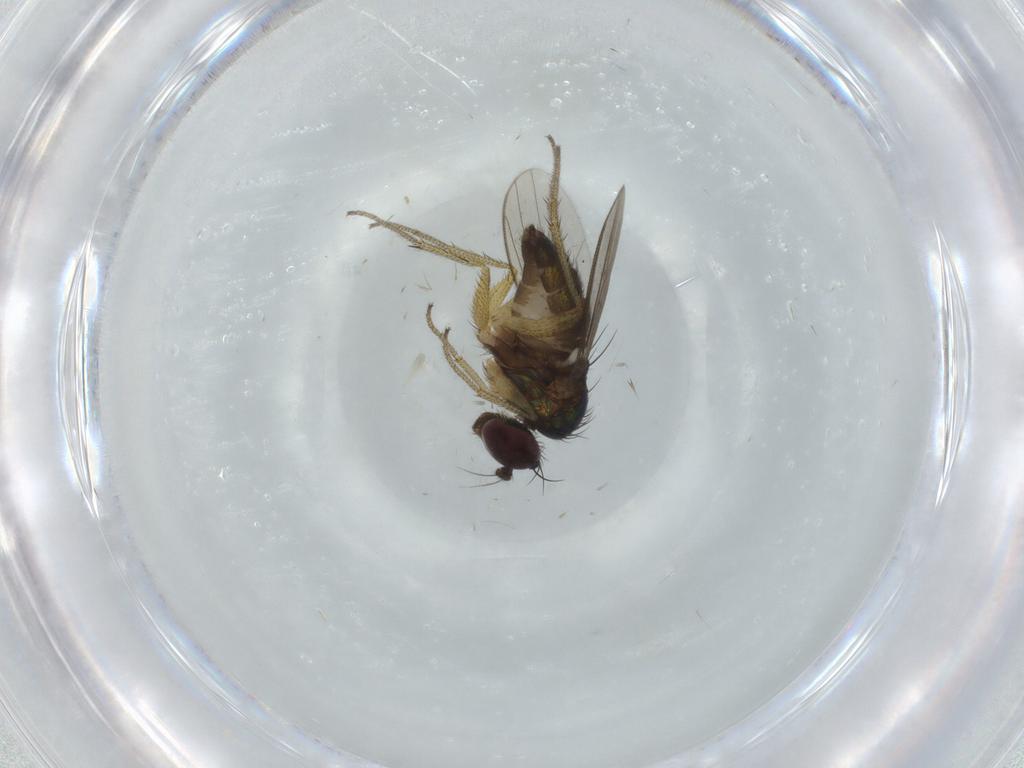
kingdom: Animalia
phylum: Arthropoda
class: Insecta
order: Diptera
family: Dolichopodidae
